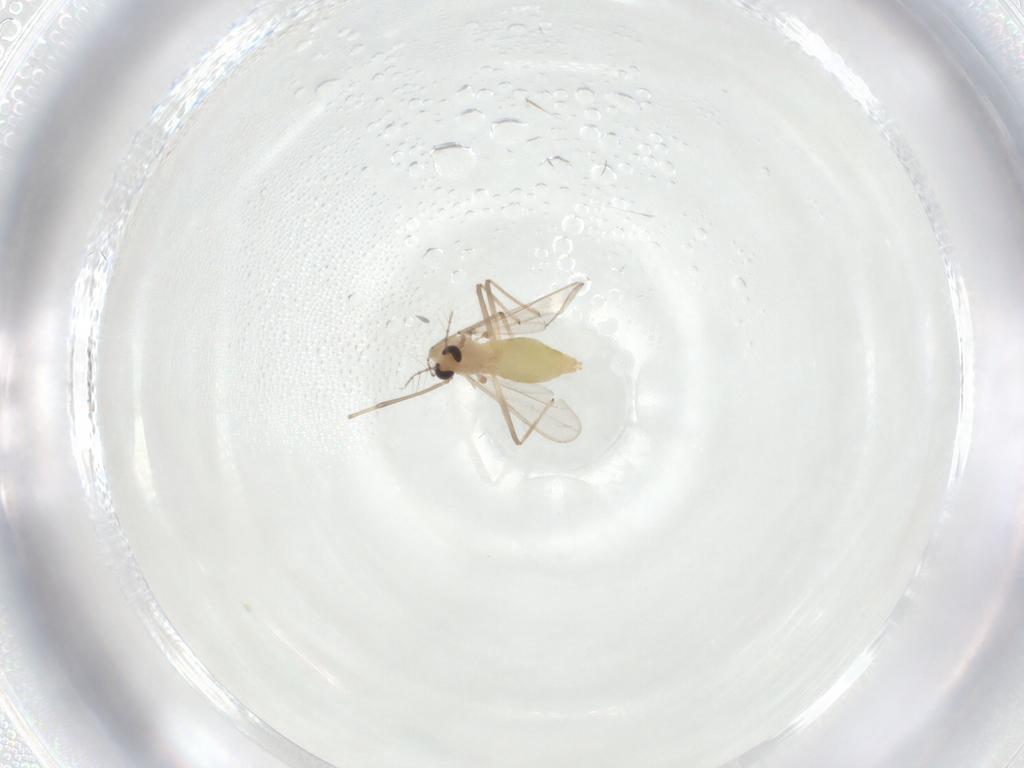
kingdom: Animalia
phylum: Arthropoda
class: Insecta
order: Diptera
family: Chironomidae
